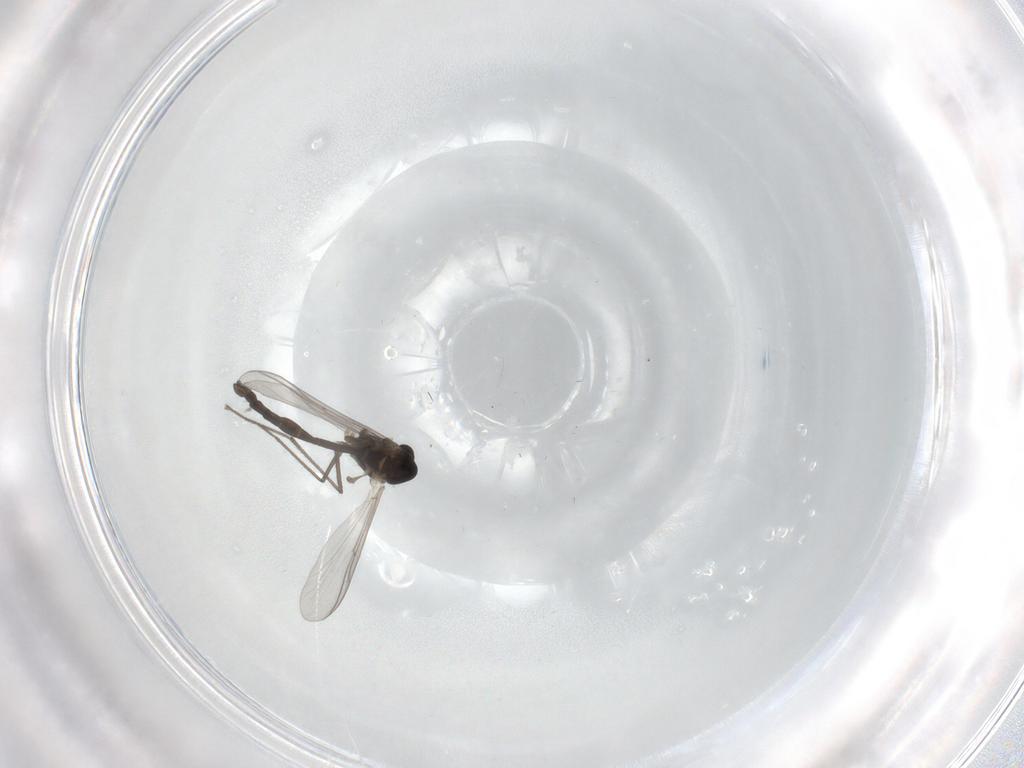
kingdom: Animalia
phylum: Arthropoda
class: Insecta
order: Diptera
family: Chironomidae
